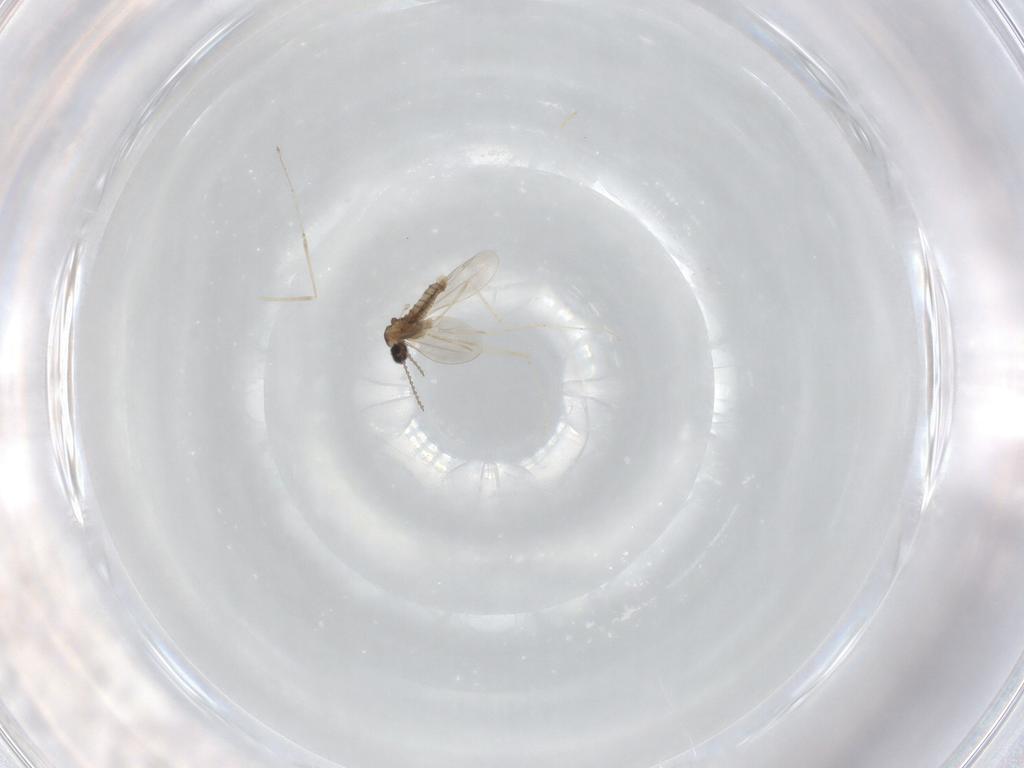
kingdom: Animalia
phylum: Arthropoda
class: Insecta
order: Diptera
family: Cecidomyiidae
